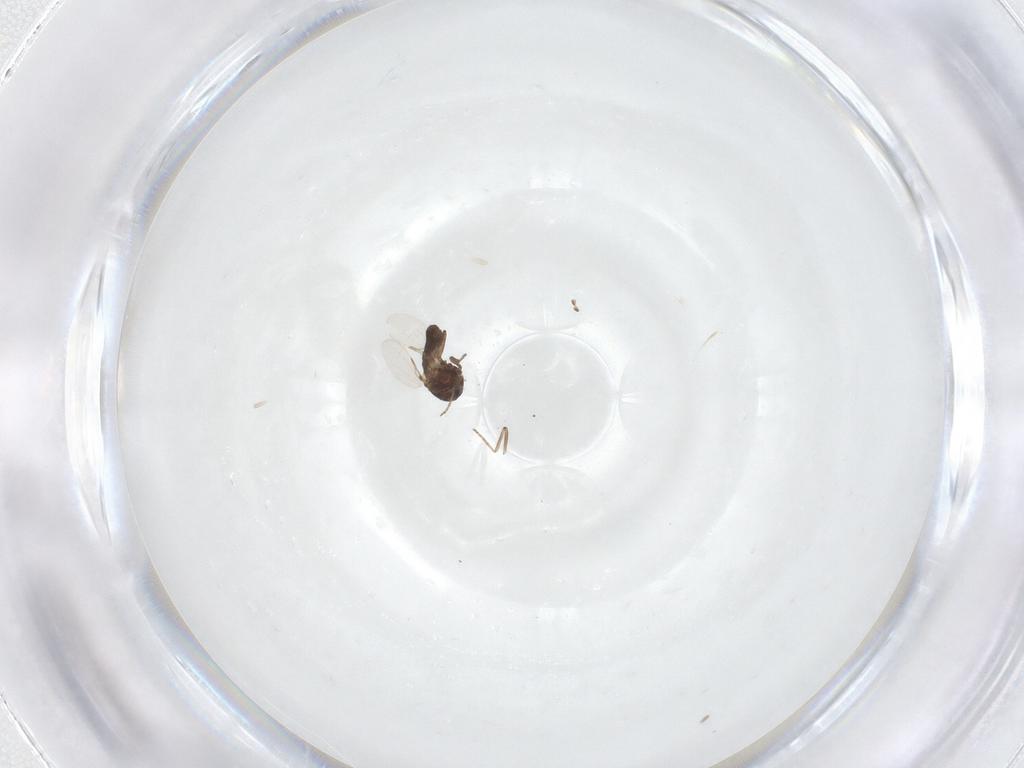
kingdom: Animalia
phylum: Arthropoda
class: Insecta
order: Diptera
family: Ceratopogonidae
